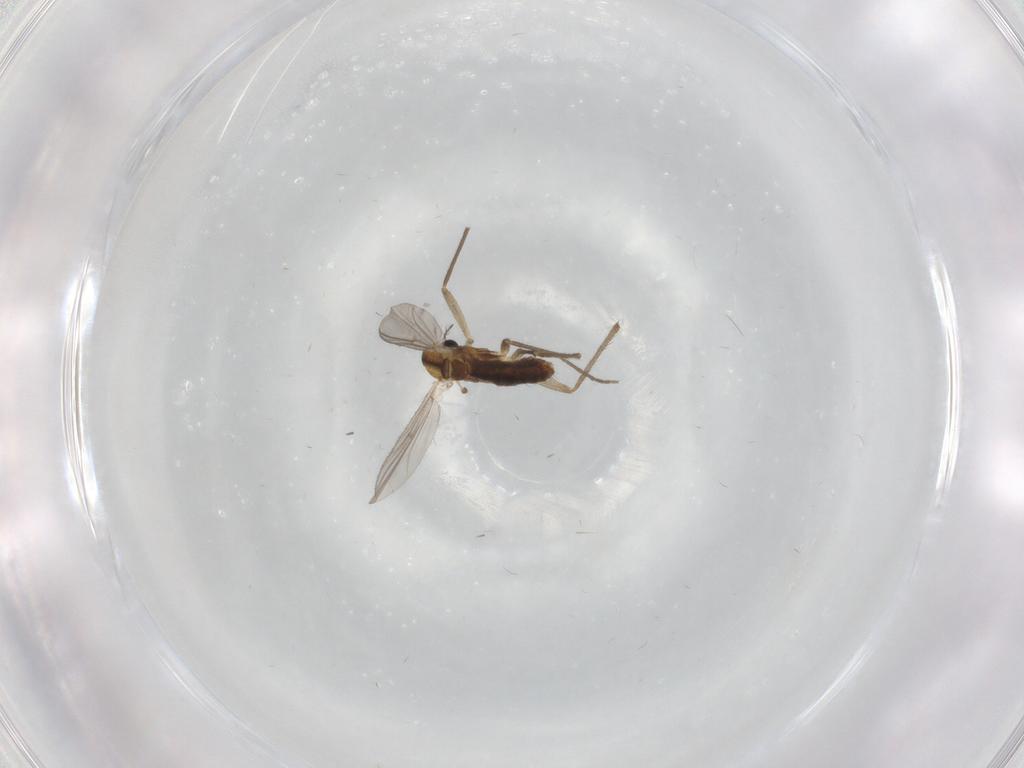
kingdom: Animalia
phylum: Arthropoda
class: Insecta
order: Diptera
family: Chironomidae
